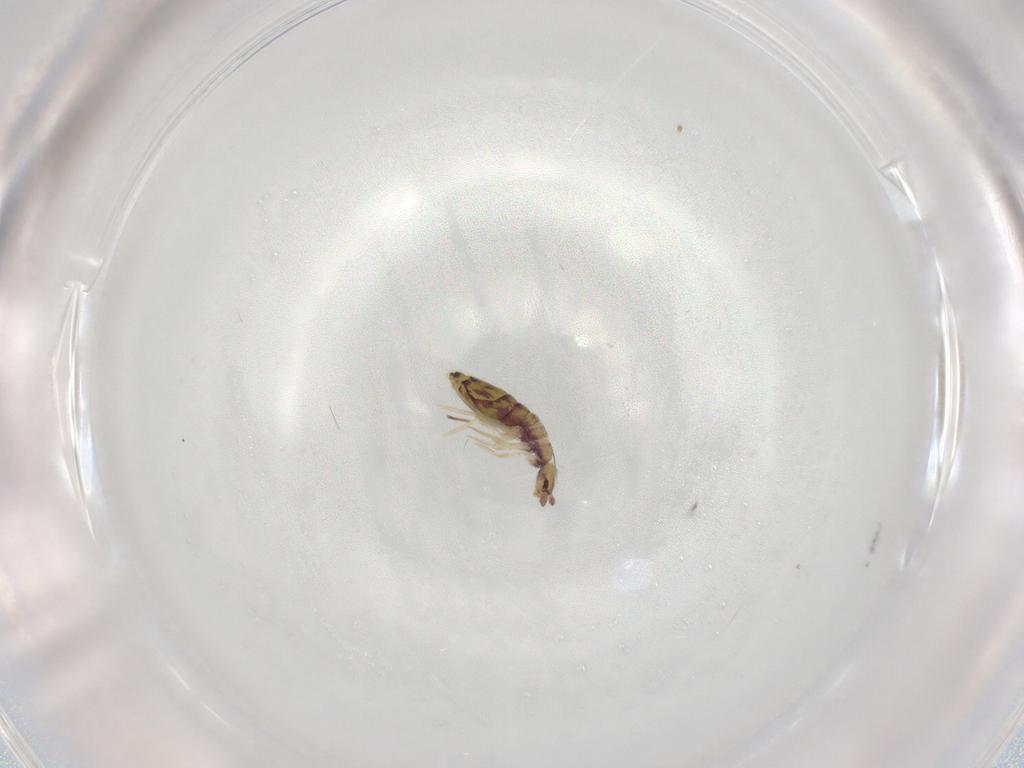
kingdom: Animalia
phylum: Arthropoda
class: Collembola
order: Entomobryomorpha
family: Entomobryidae
